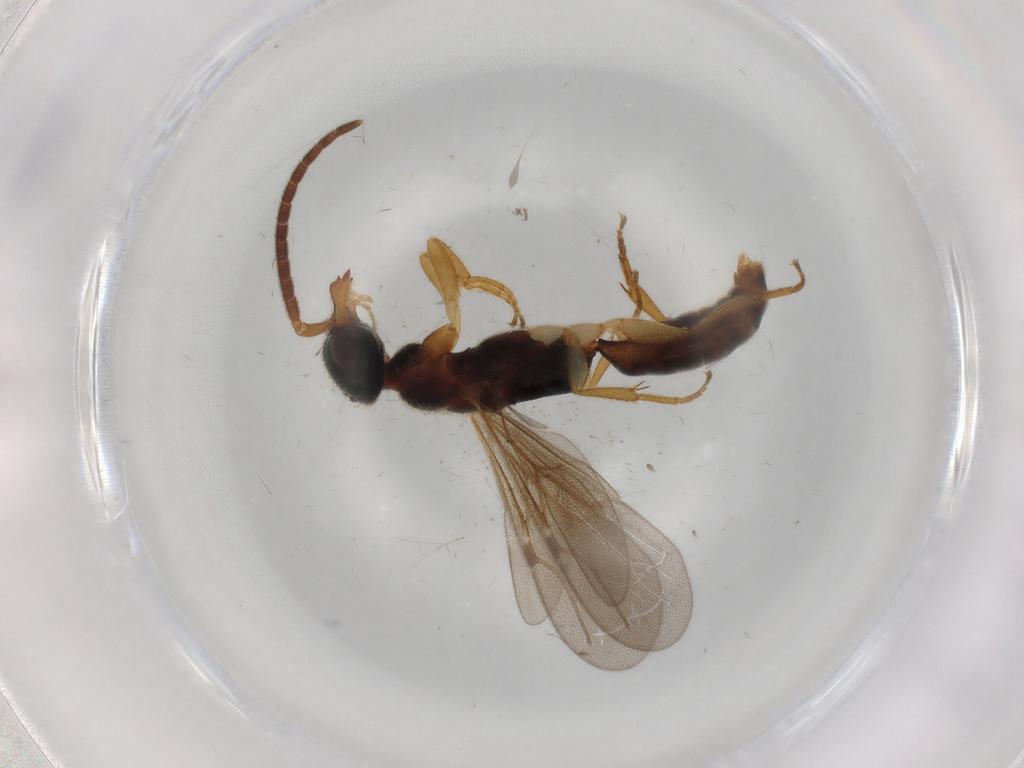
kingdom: Animalia
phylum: Arthropoda
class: Insecta
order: Hymenoptera
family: Bethylidae
